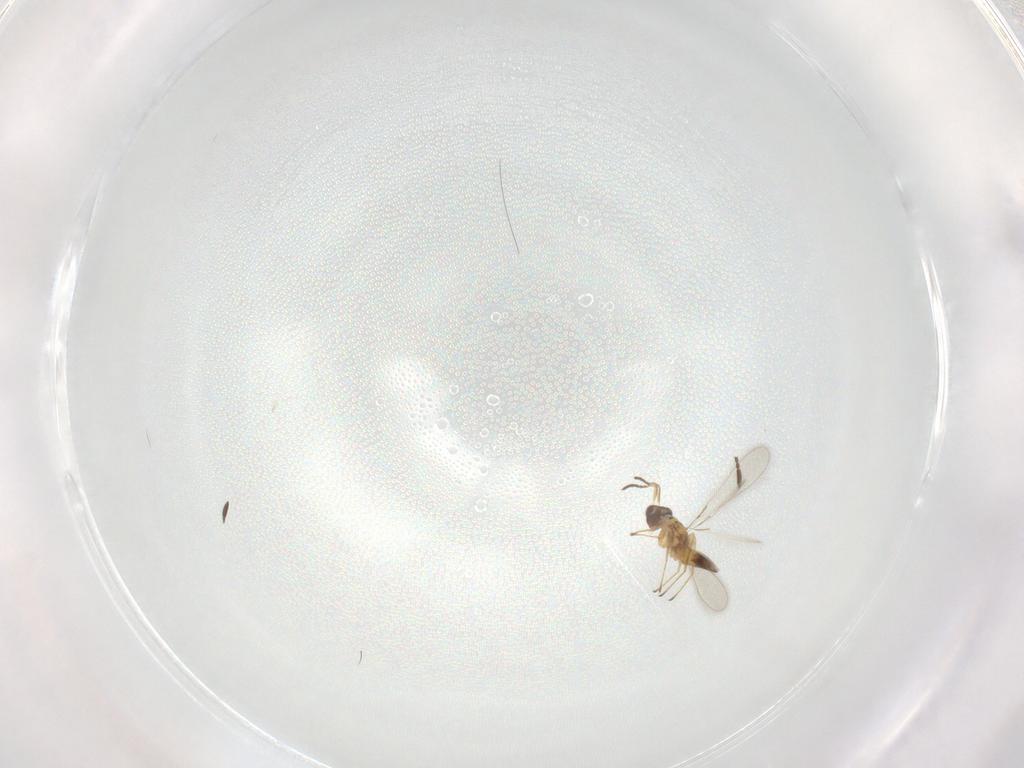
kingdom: Animalia
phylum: Arthropoda
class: Insecta
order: Hymenoptera
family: Mymaridae
